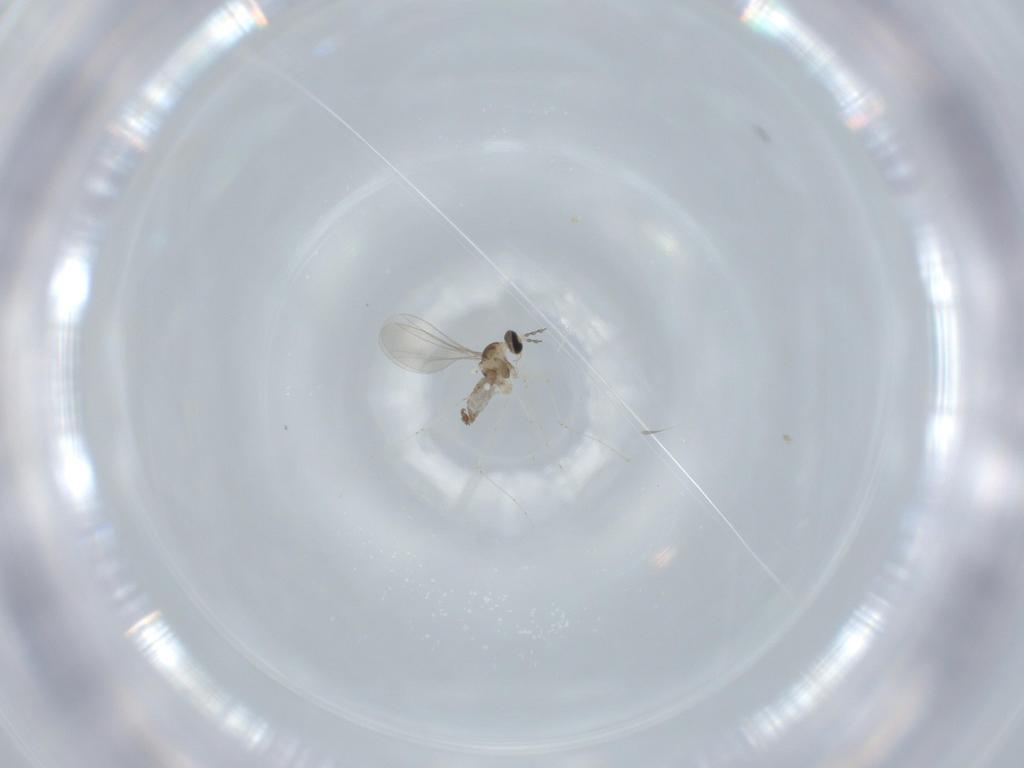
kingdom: Animalia
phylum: Arthropoda
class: Insecta
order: Diptera
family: Cecidomyiidae
